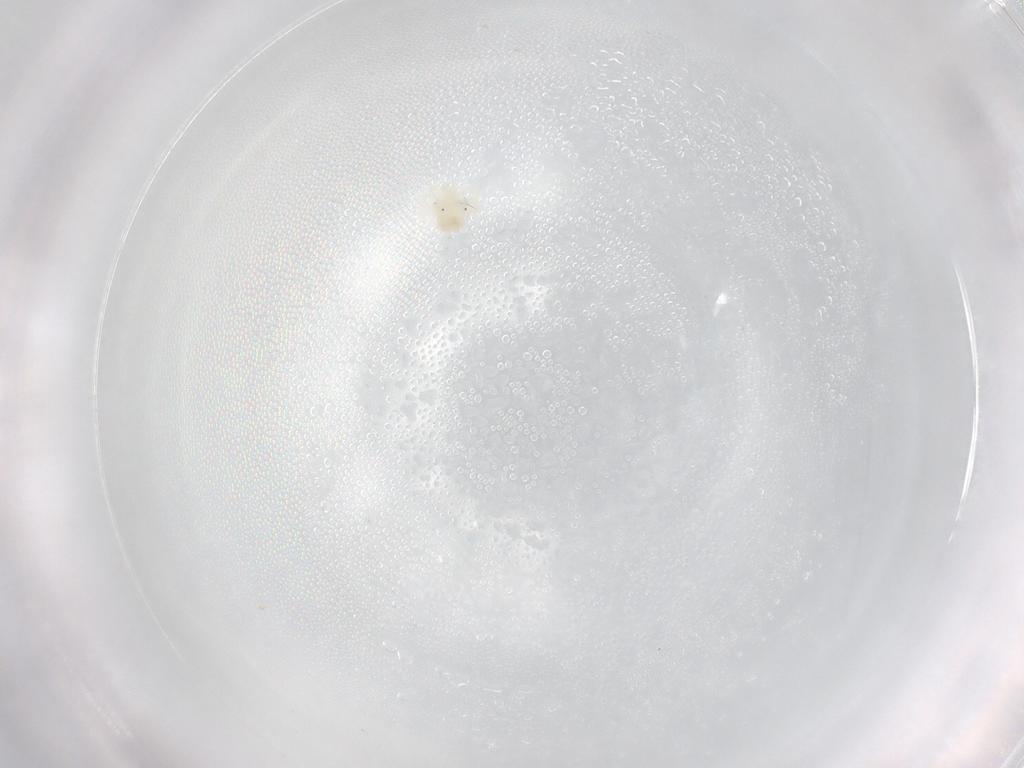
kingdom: Animalia
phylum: Arthropoda
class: Arachnida
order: Trombidiformes
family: Anystidae
